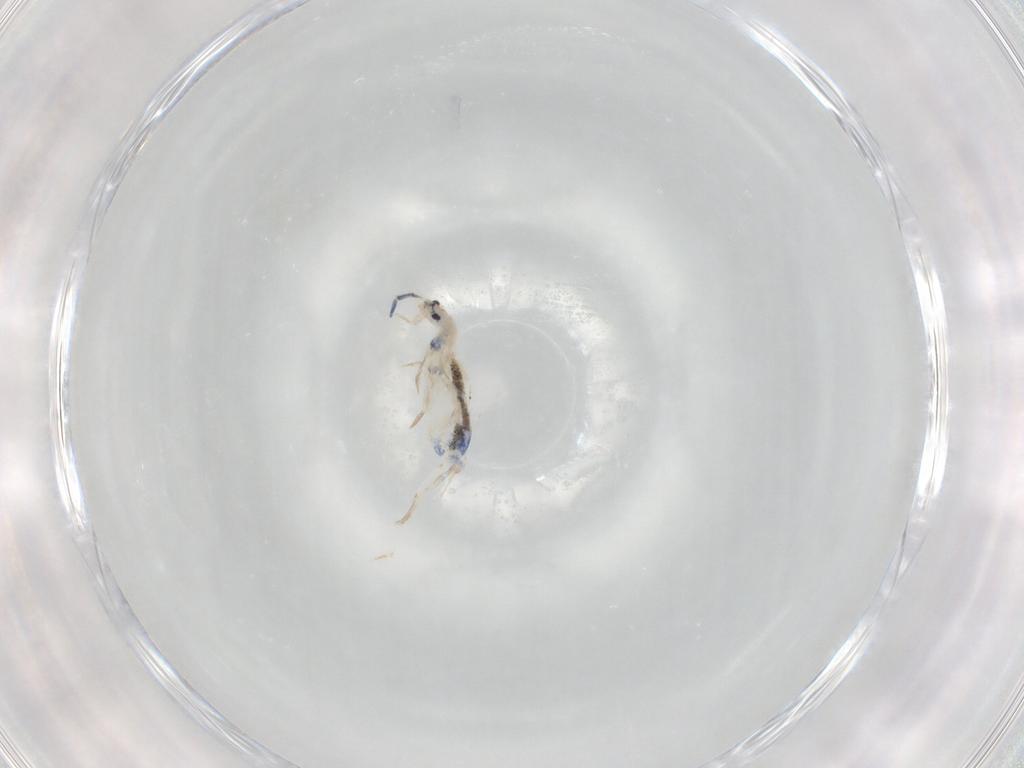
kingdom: Animalia
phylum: Arthropoda
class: Collembola
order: Entomobryomorpha
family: Entomobryidae
